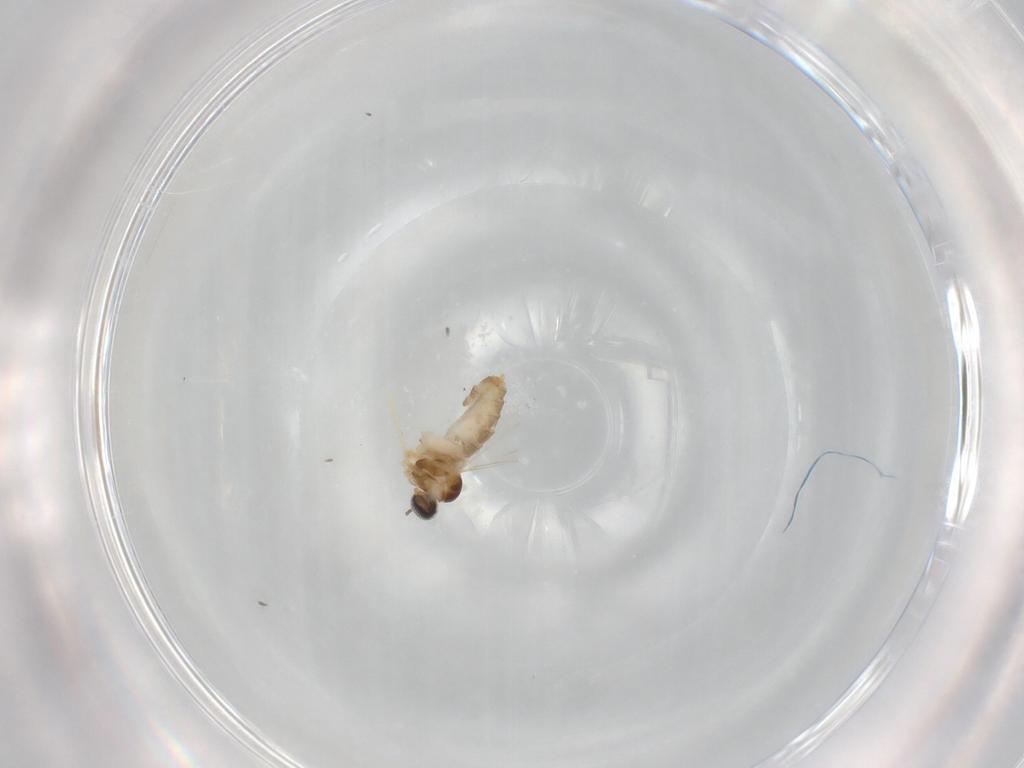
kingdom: Animalia
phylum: Arthropoda
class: Insecta
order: Diptera
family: Cecidomyiidae
